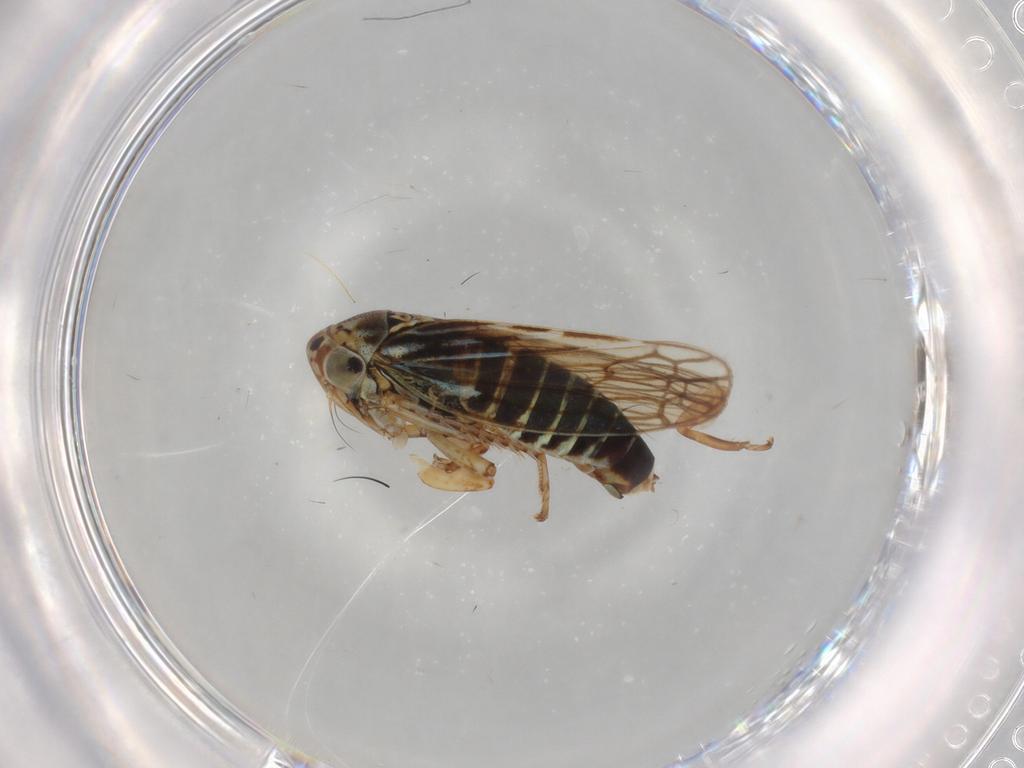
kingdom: Animalia
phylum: Arthropoda
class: Insecta
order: Hemiptera
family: Cicadellidae
